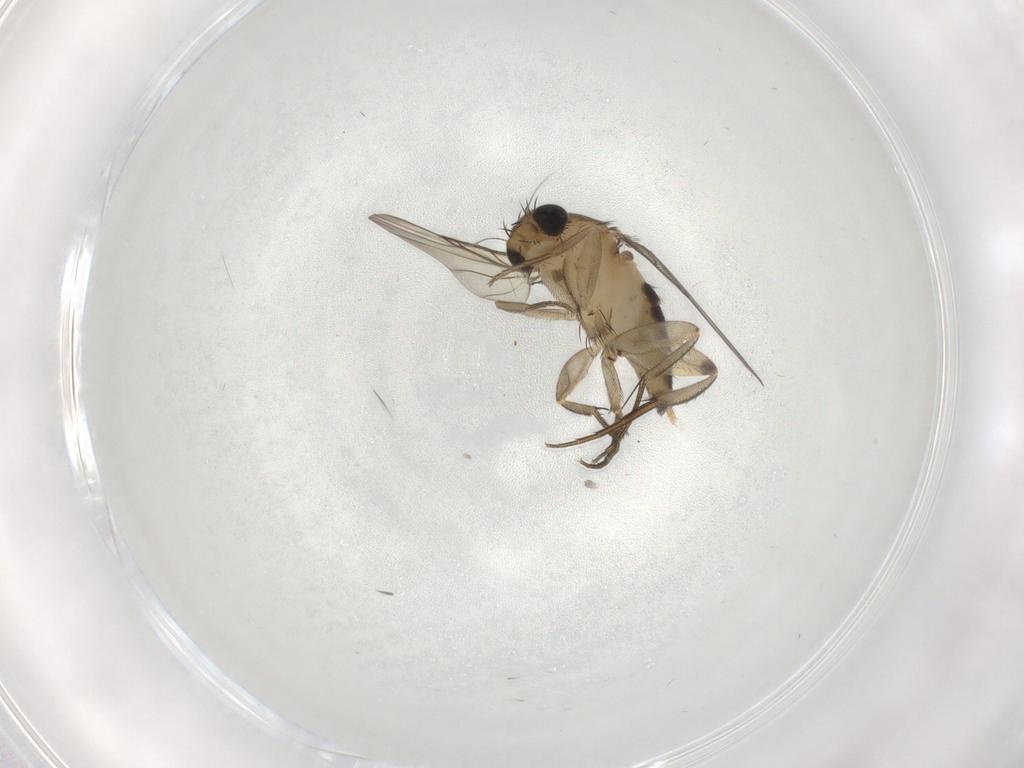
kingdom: Animalia
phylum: Arthropoda
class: Insecta
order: Diptera
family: Phoridae
